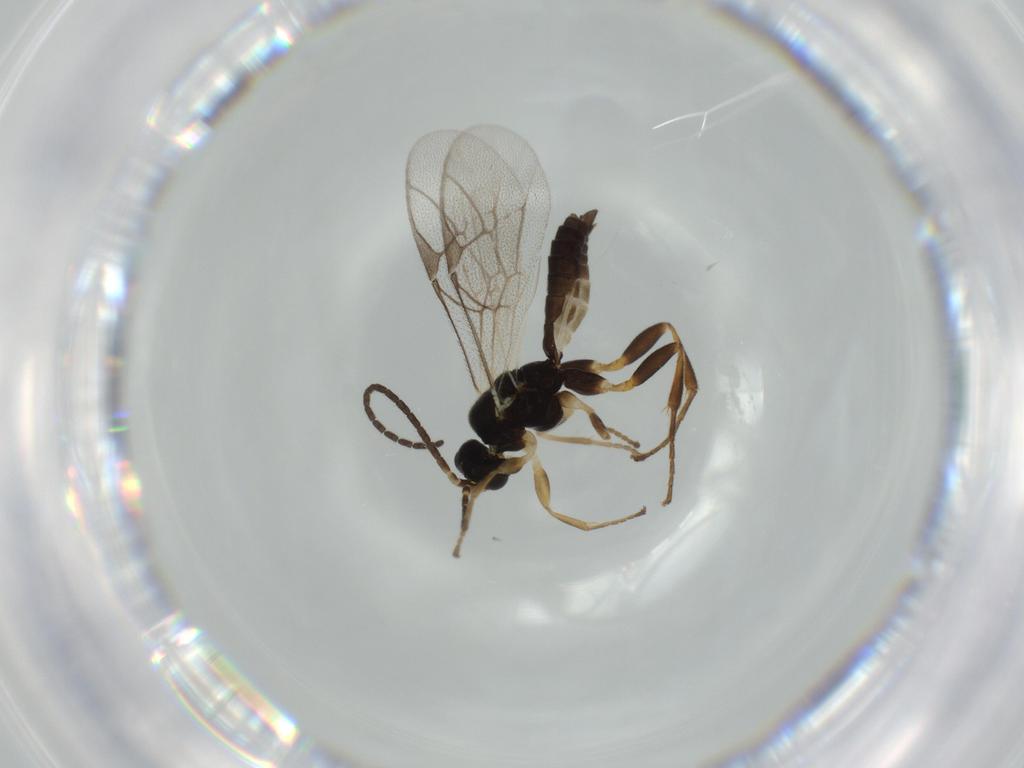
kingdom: Animalia
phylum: Arthropoda
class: Insecta
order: Hymenoptera
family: Ichneumonidae
